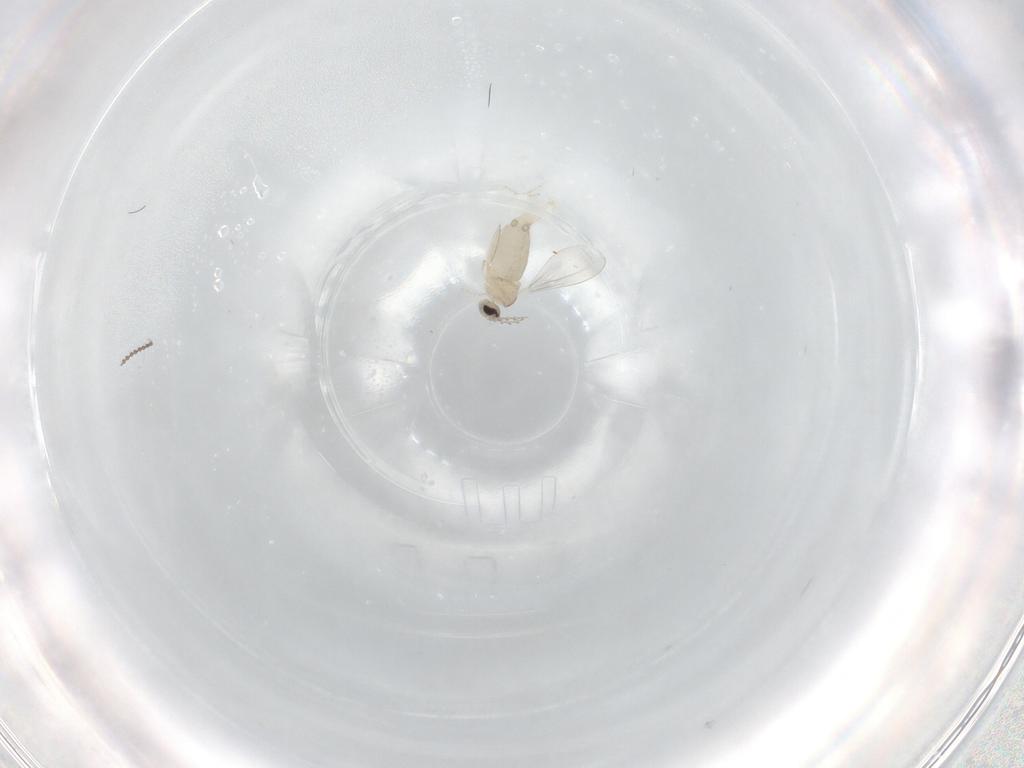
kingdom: Animalia
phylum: Arthropoda
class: Insecta
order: Diptera
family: Cecidomyiidae
